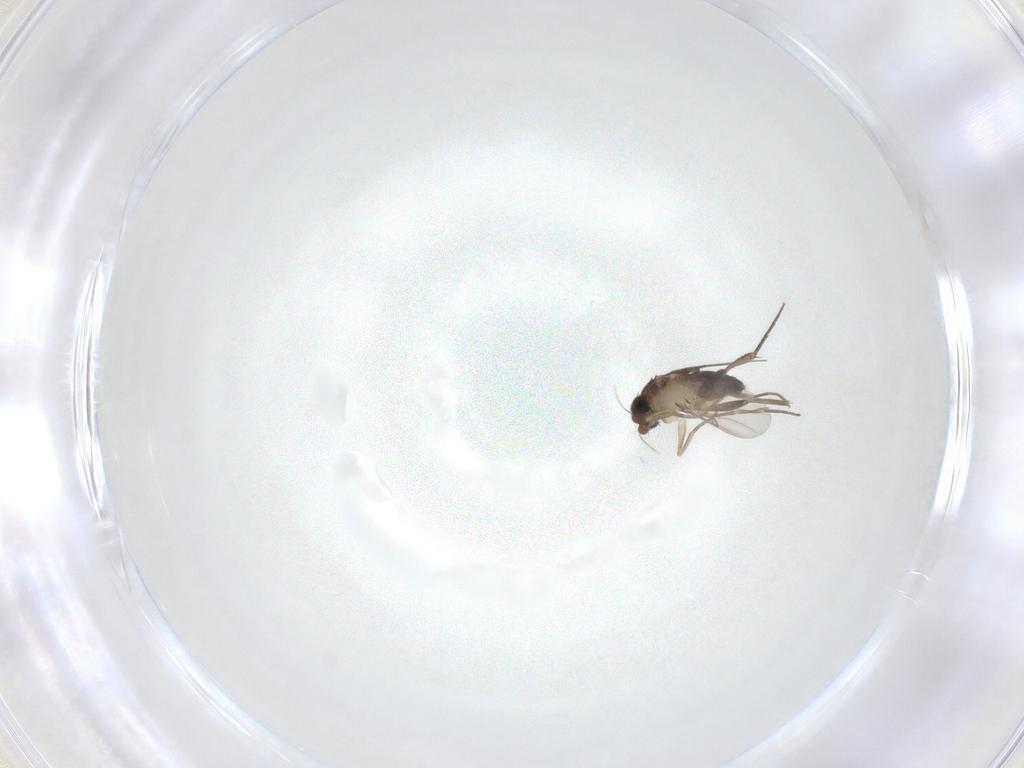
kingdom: Animalia
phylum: Arthropoda
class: Insecta
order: Diptera
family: Phoridae
